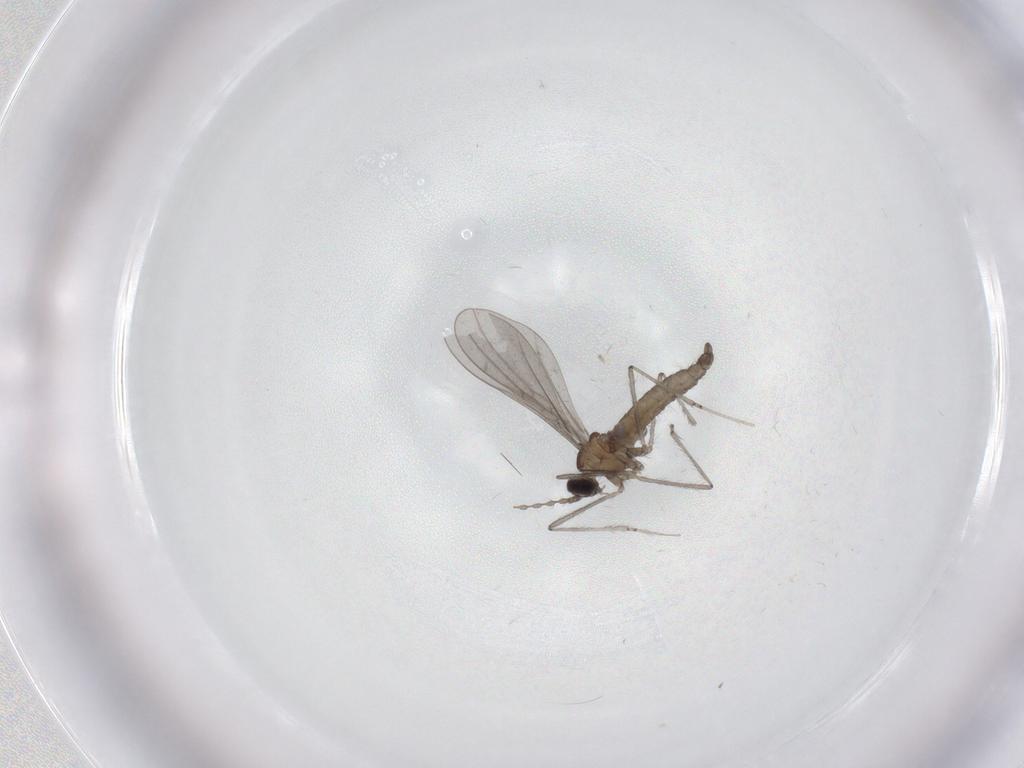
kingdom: Animalia
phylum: Arthropoda
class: Insecta
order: Diptera
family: Cecidomyiidae
